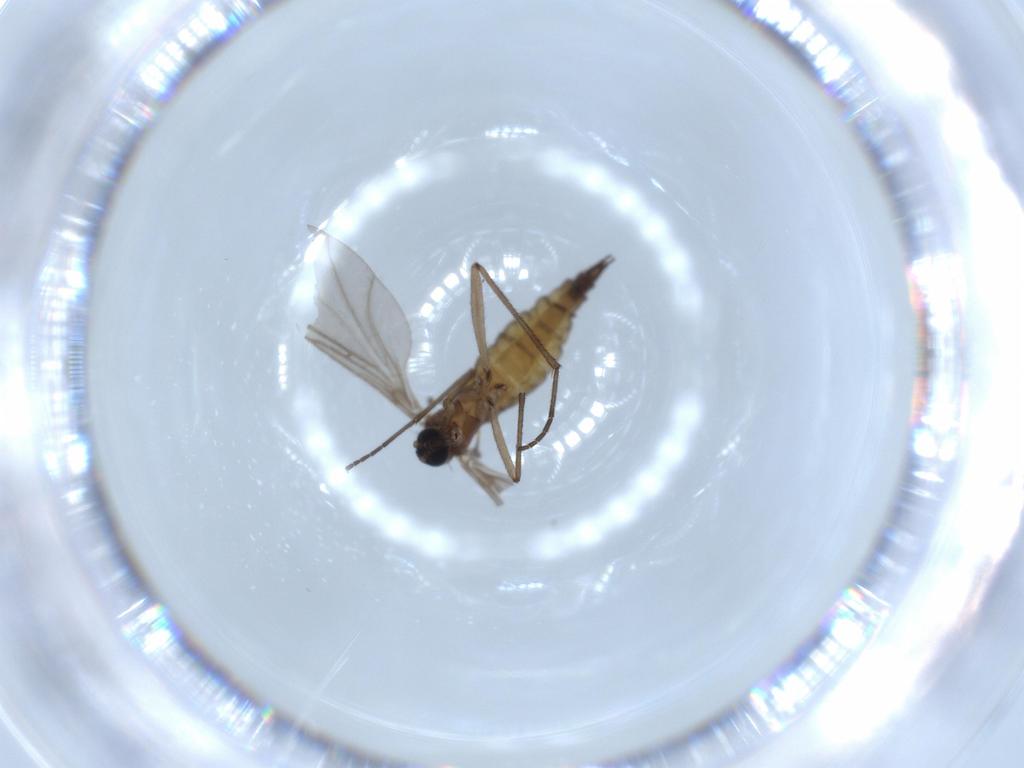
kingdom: Animalia
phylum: Arthropoda
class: Insecta
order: Diptera
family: Sciaridae
